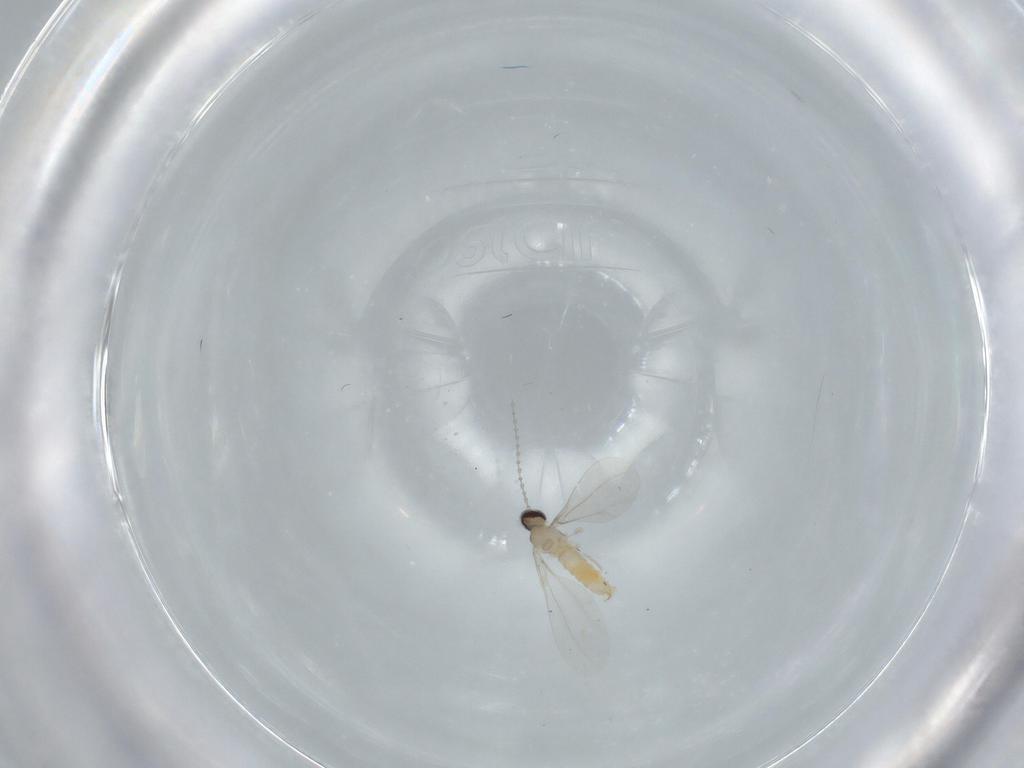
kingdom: Animalia
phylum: Arthropoda
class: Insecta
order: Diptera
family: Cecidomyiidae
